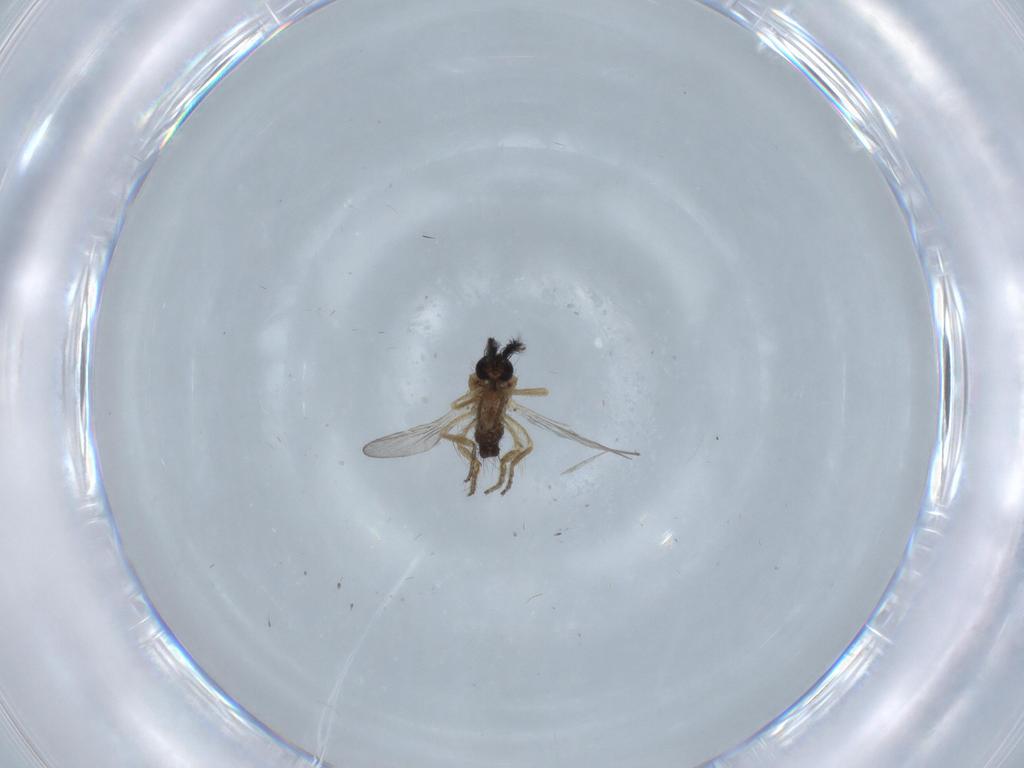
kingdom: Animalia
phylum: Arthropoda
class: Insecta
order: Diptera
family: Ceratopogonidae
